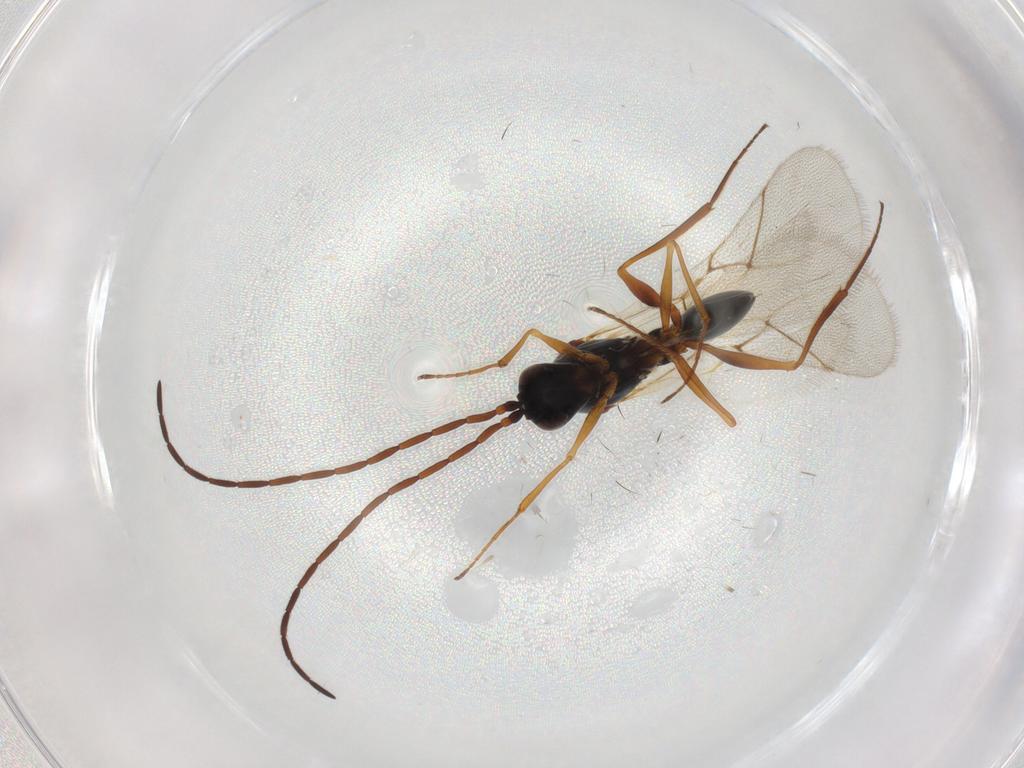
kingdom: Animalia
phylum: Arthropoda
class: Insecta
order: Hymenoptera
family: Figitidae
